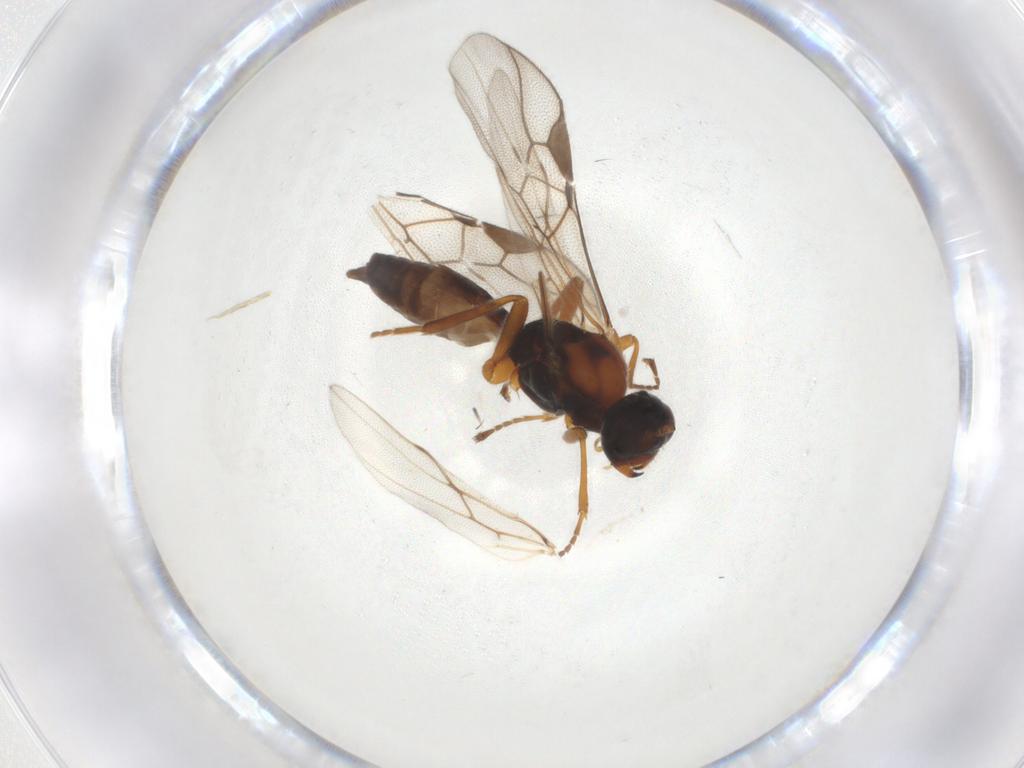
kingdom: Animalia
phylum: Arthropoda
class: Insecta
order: Hymenoptera
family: Braconidae
